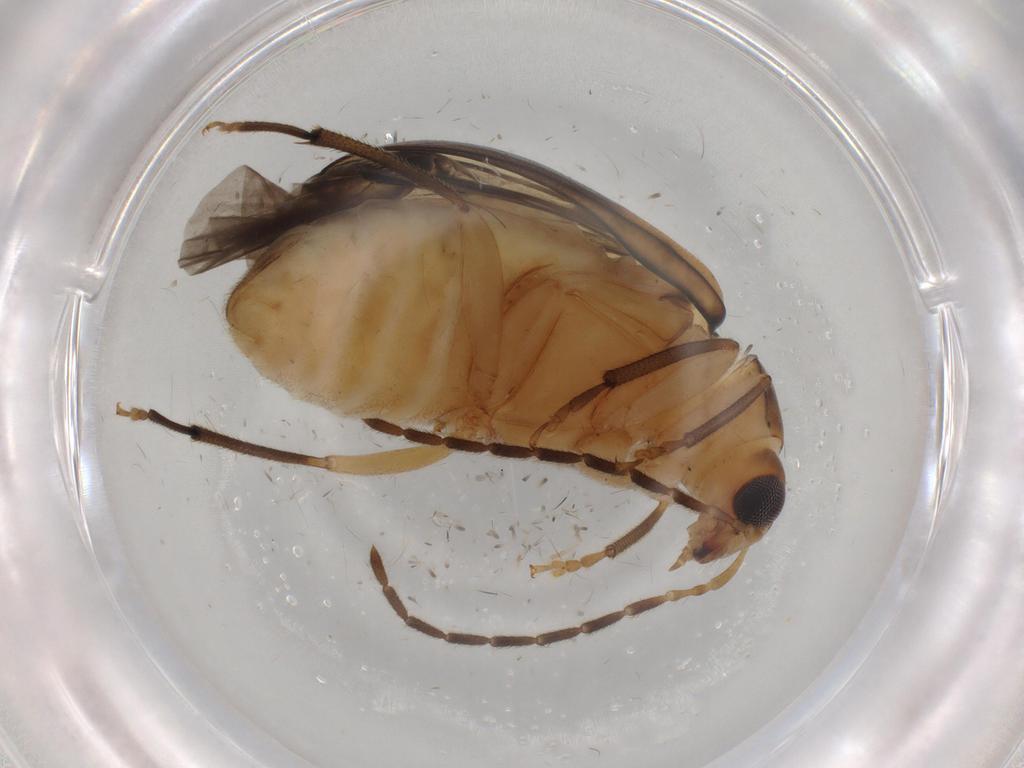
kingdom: Animalia
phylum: Arthropoda
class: Insecta
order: Coleoptera
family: Chrysomelidae
